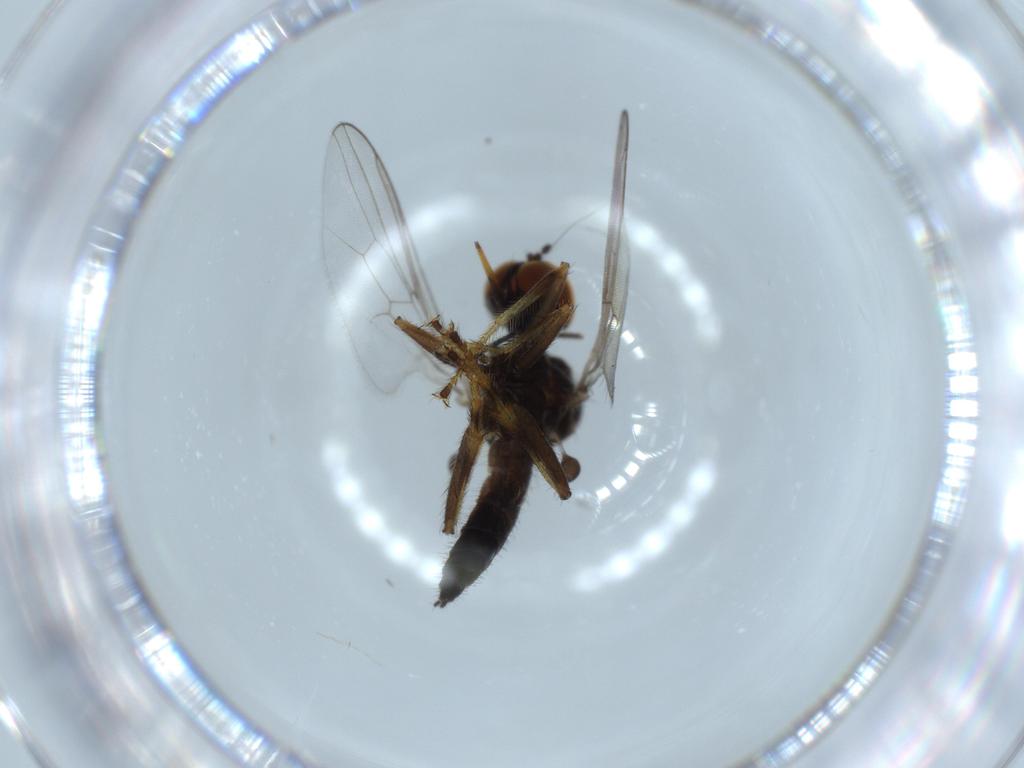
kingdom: Animalia
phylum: Arthropoda
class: Insecta
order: Diptera
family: Hybotidae
